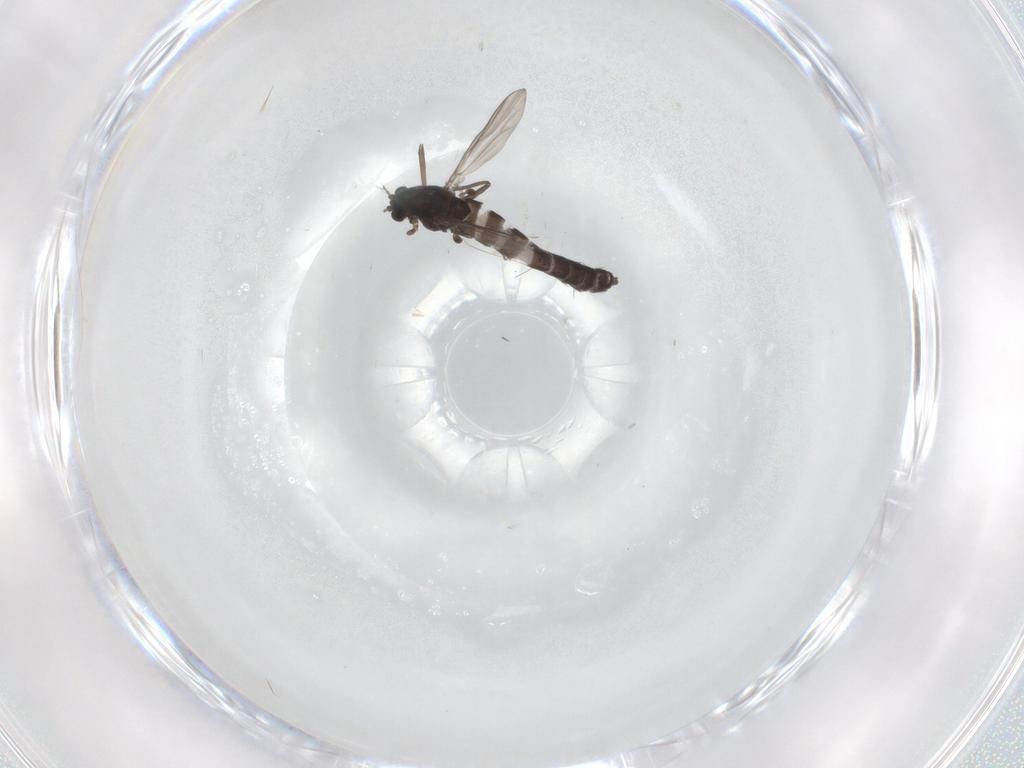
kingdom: Animalia
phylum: Arthropoda
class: Insecta
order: Diptera
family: Chironomidae
